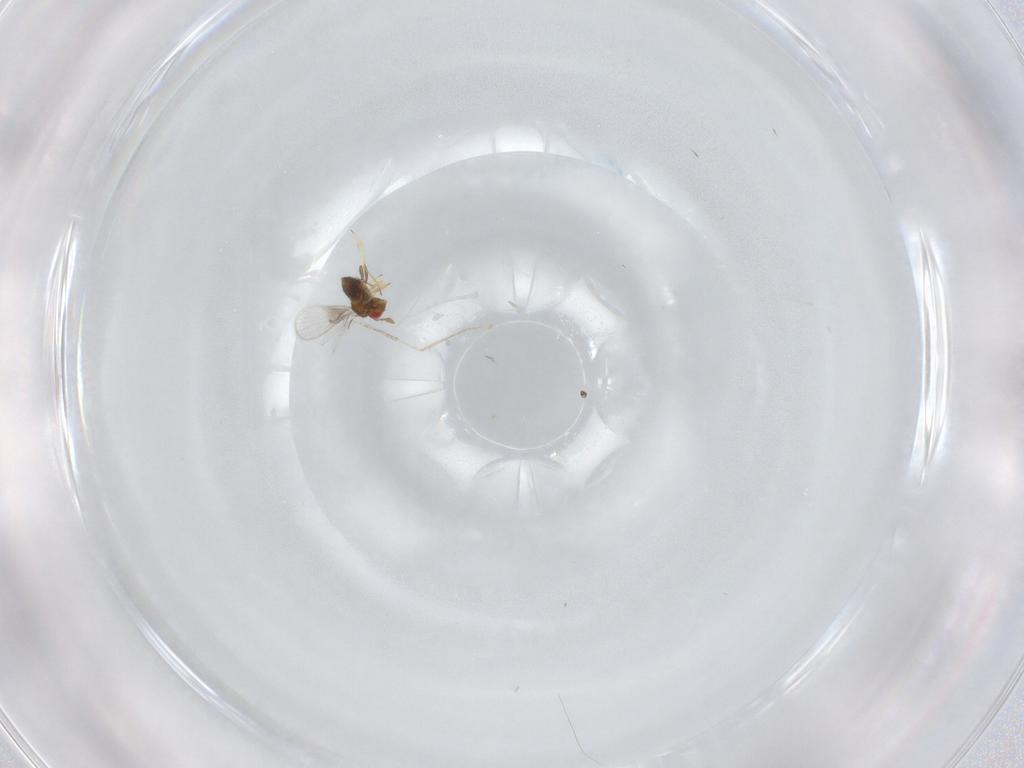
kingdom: Animalia
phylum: Arthropoda
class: Insecta
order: Hymenoptera
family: Trichogrammatidae
